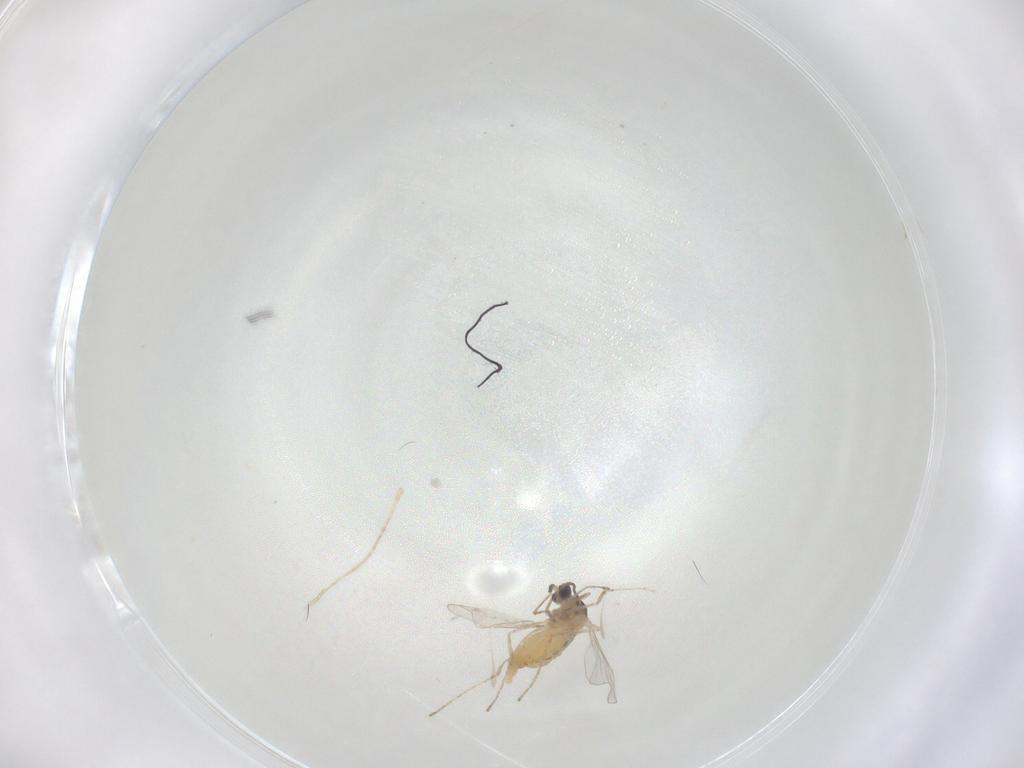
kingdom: Animalia
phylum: Arthropoda
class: Insecta
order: Diptera
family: Cecidomyiidae
